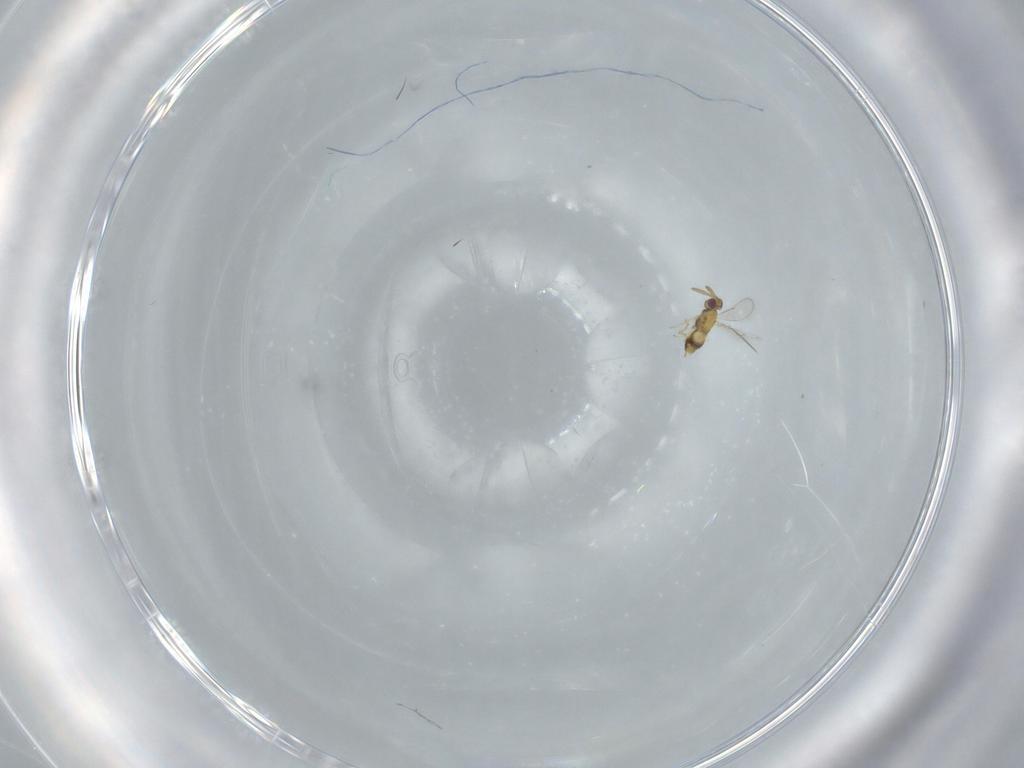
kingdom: Animalia
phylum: Arthropoda
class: Insecta
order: Hymenoptera
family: Aphelinidae
